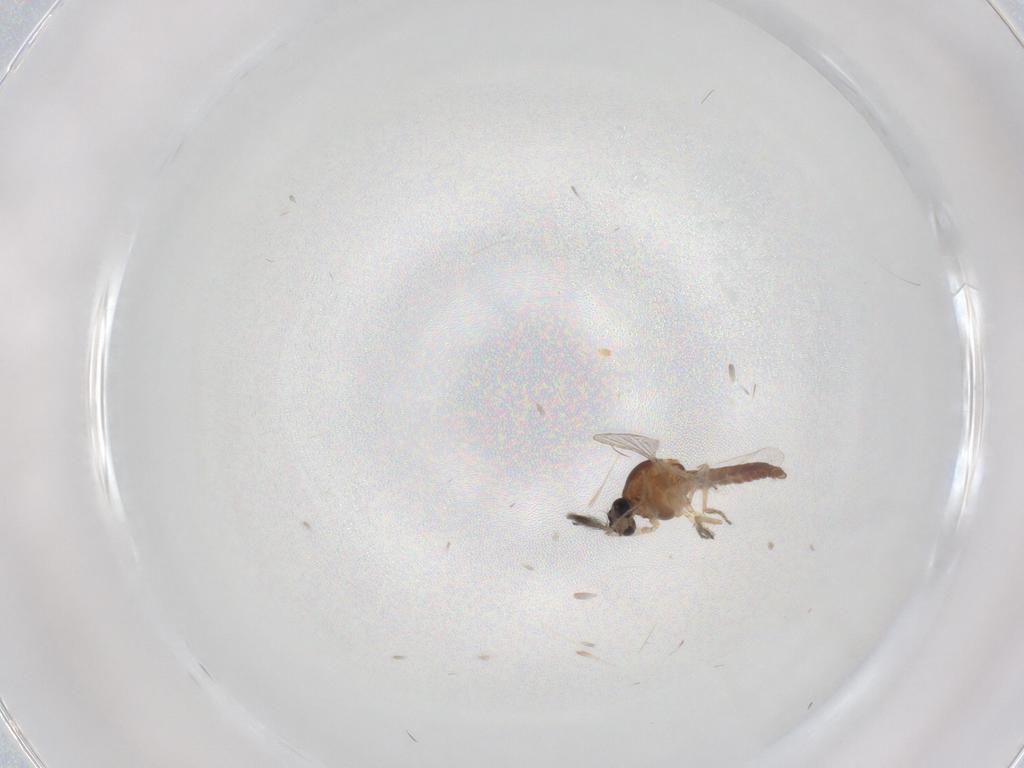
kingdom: Animalia
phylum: Arthropoda
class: Insecta
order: Diptera
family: Ceratopogonidae
